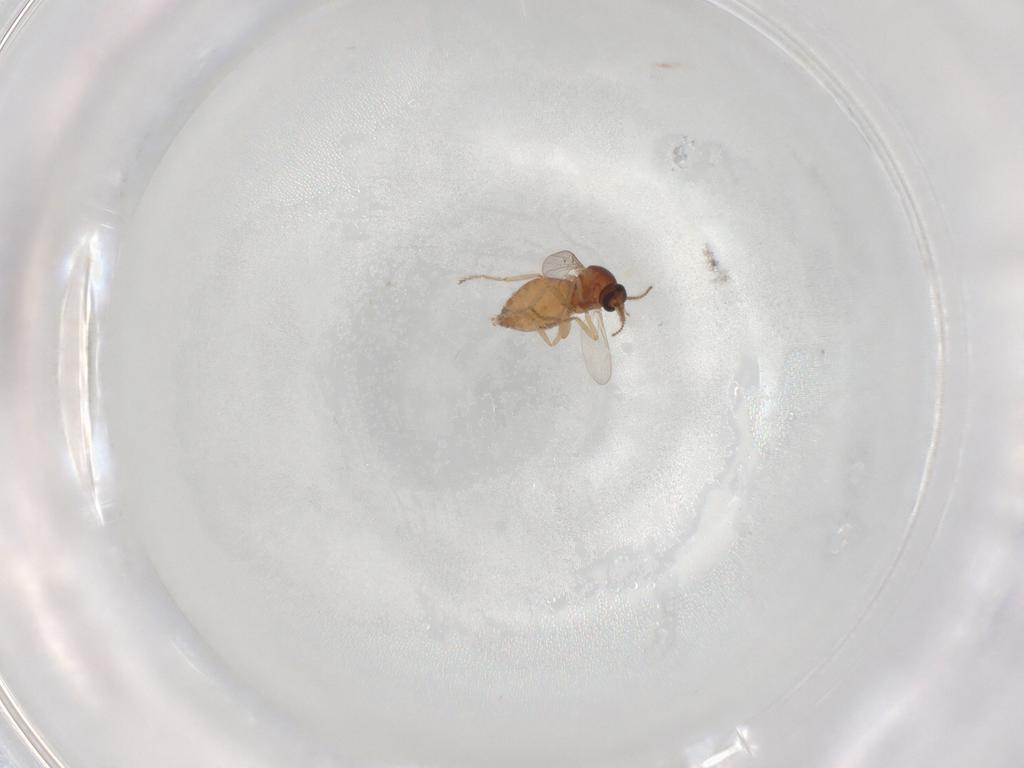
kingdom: Animalia
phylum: Arthropoda
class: Insecta
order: Diptera
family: Ceratopogonidae
